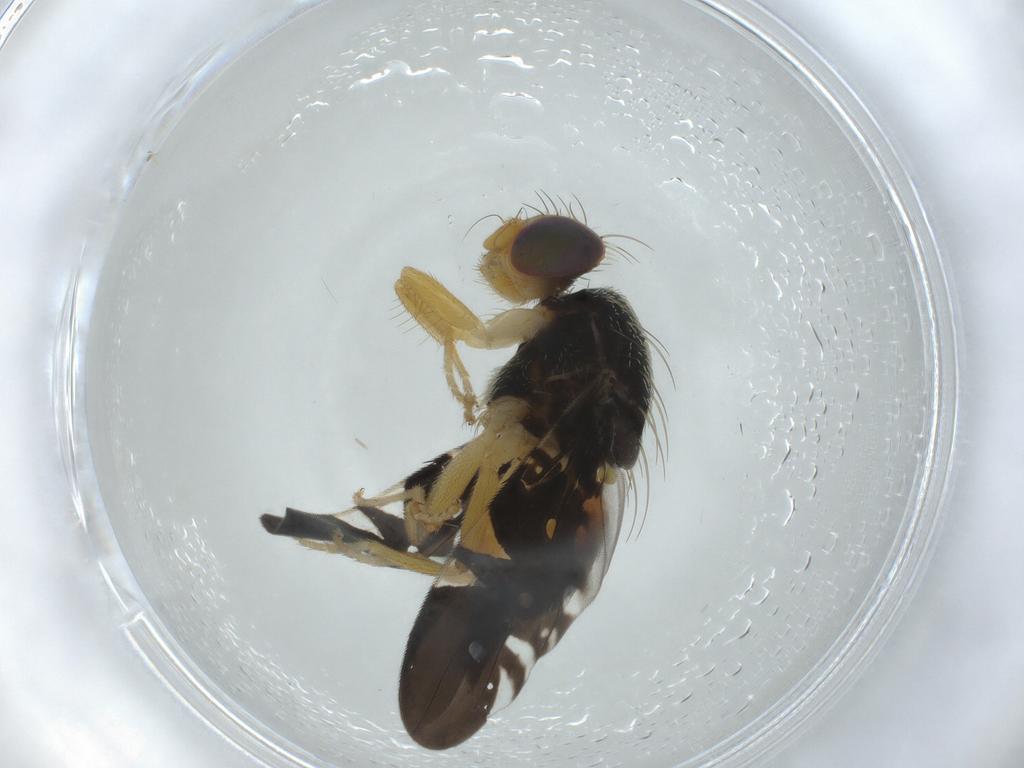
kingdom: Animalia
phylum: Arthropoda
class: Insecta
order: Diptera
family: Tephritidae
